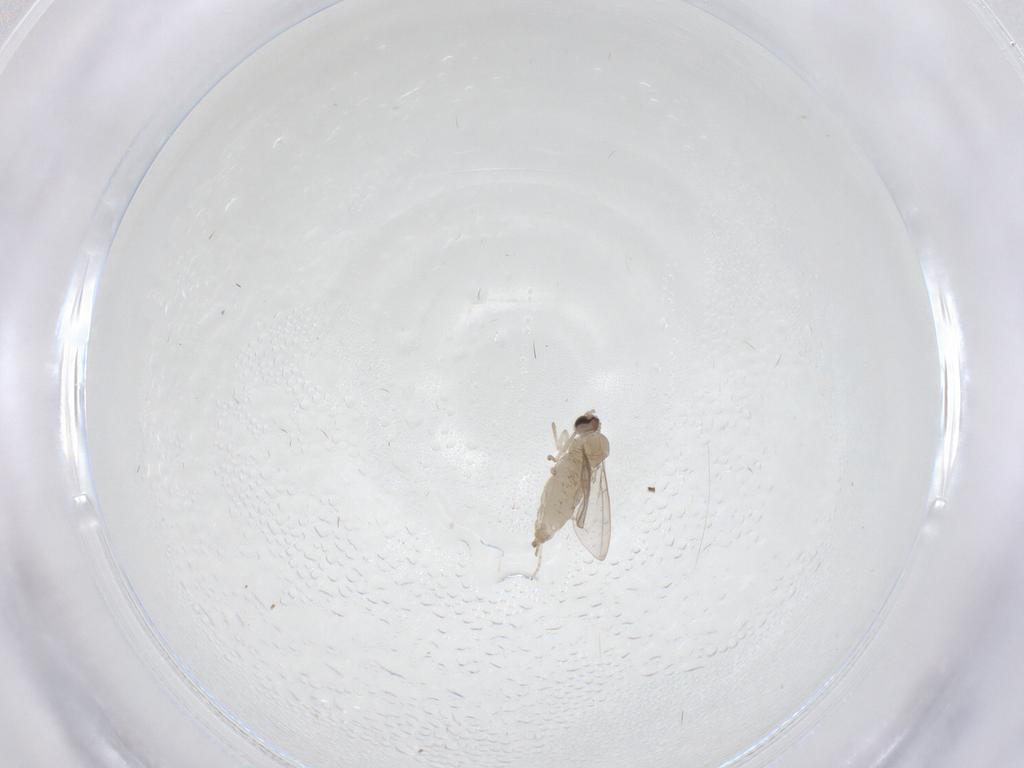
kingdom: Animalia
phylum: Arthropoda
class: Insecta
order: Diptera
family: Cecidomyiidae
